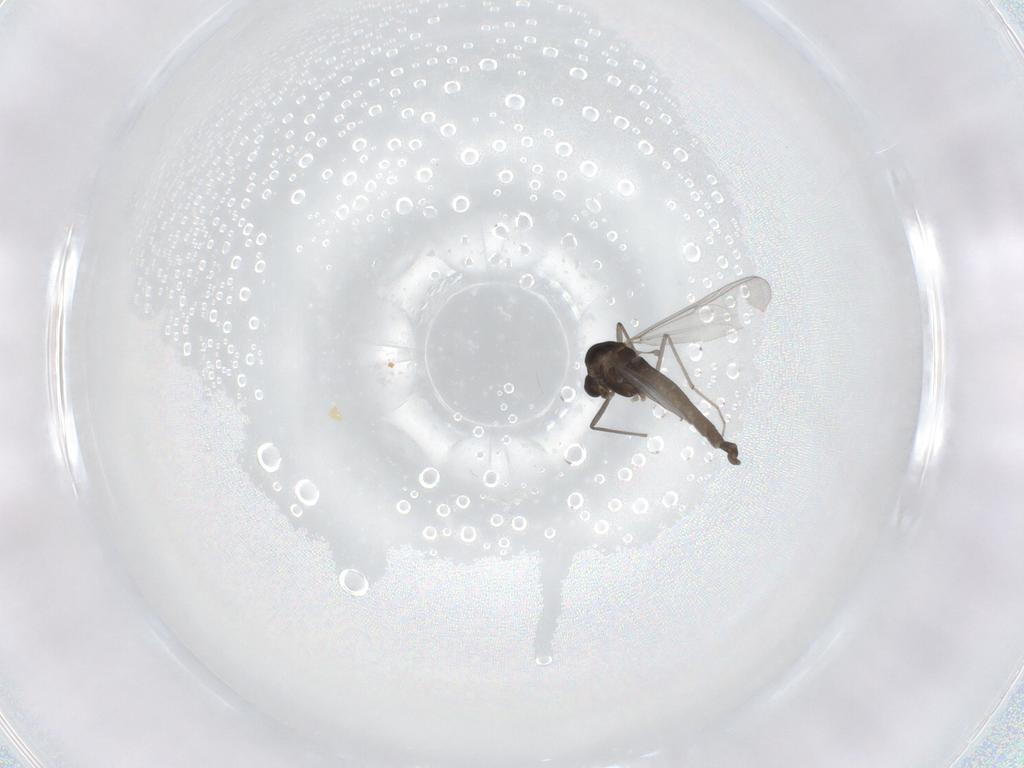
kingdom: Animalia
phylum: Arthropoda
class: Insecta
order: Diptera
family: Chironomidae
